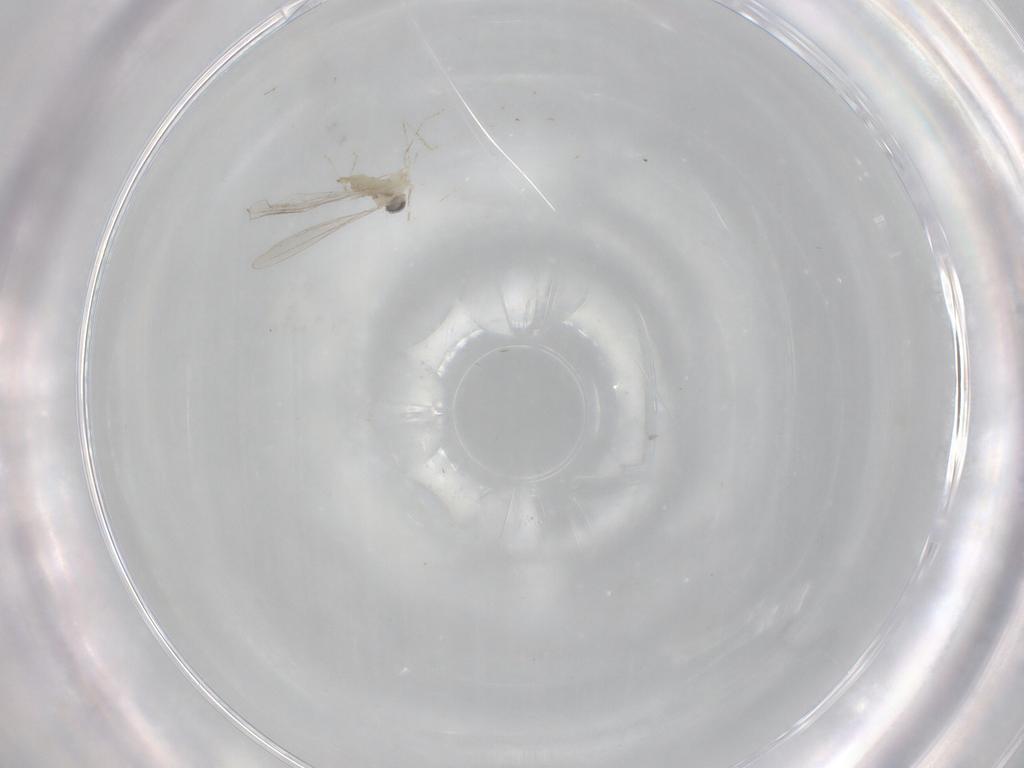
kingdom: Animalia
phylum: Arthropoda
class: Insecta
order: Diptera
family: Cecidomyiidae
